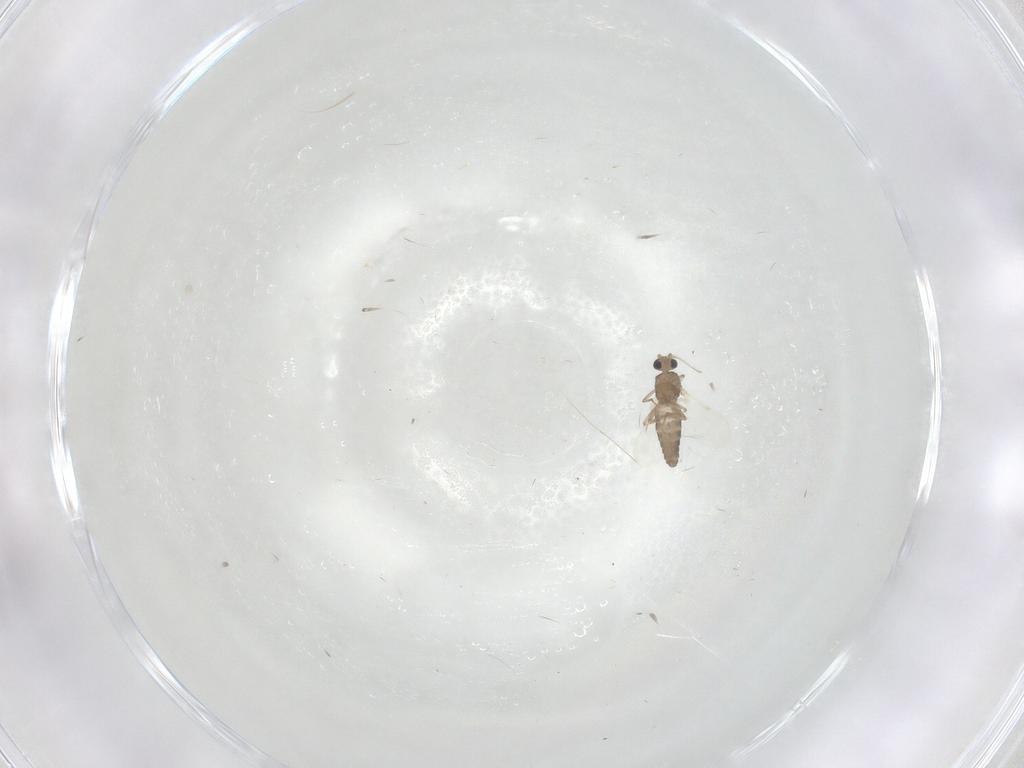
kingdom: Animalia
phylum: Arthropoda
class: Insecta
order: Diptera
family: Ceratopogonidae
